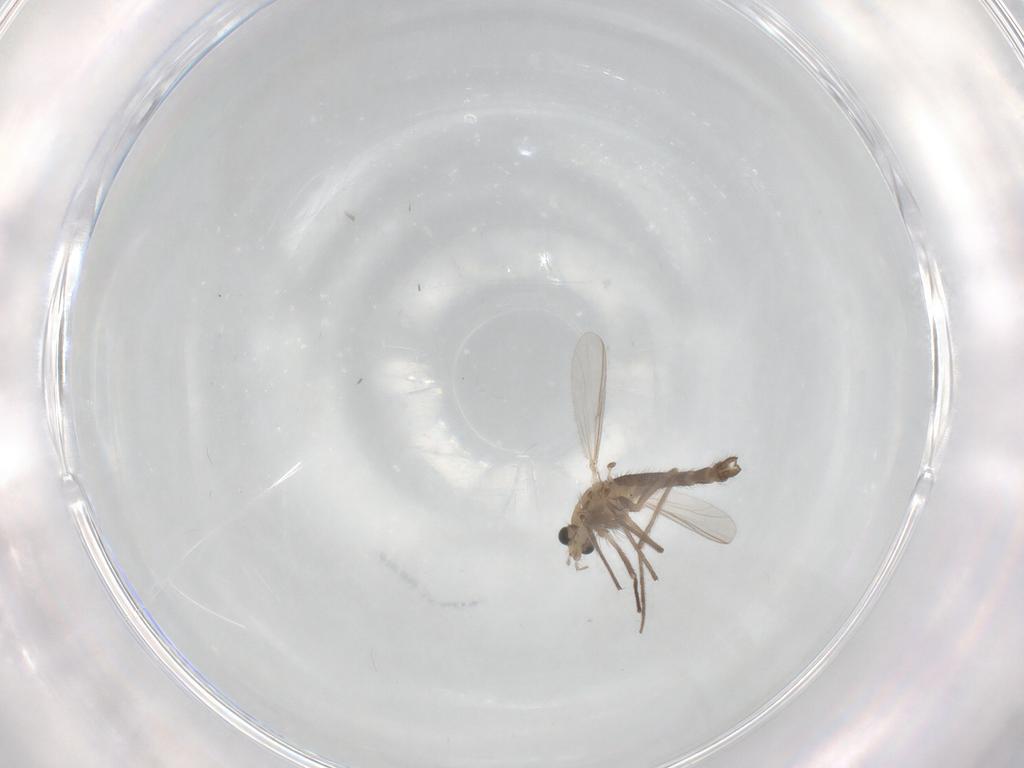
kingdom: Animalia
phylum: Arthropoda
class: Insecta
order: Diptera
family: Chironomidae
